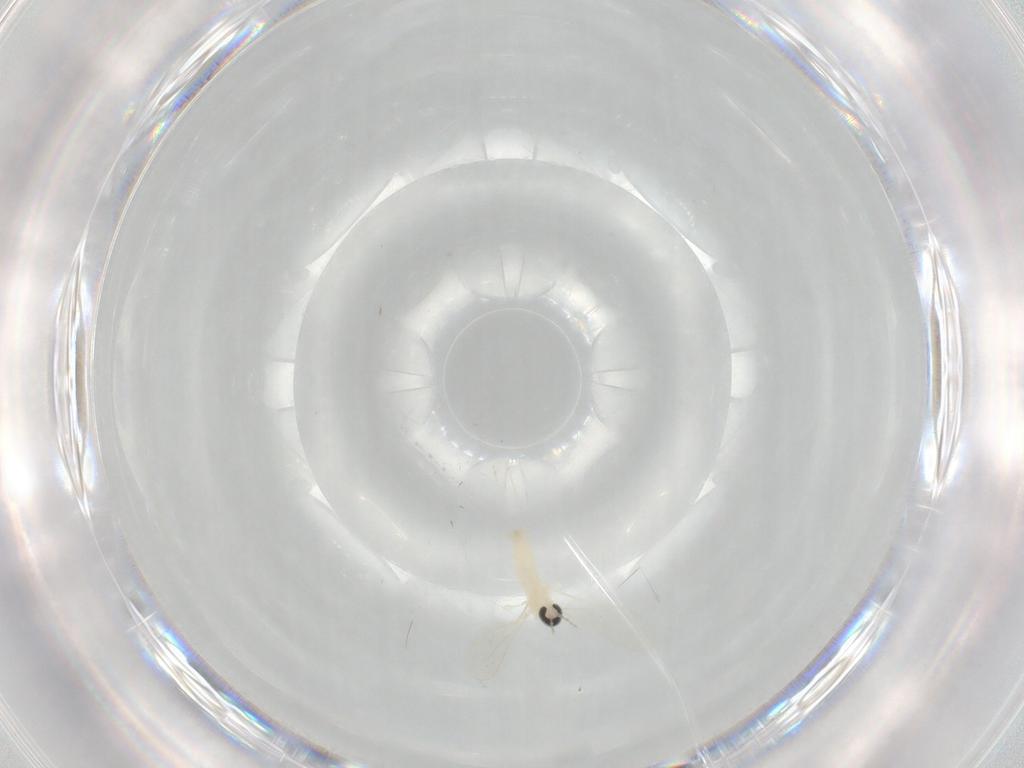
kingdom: Animalia
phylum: Arthropoda
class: Insecta
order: Diptera
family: Cecidomyiidae
